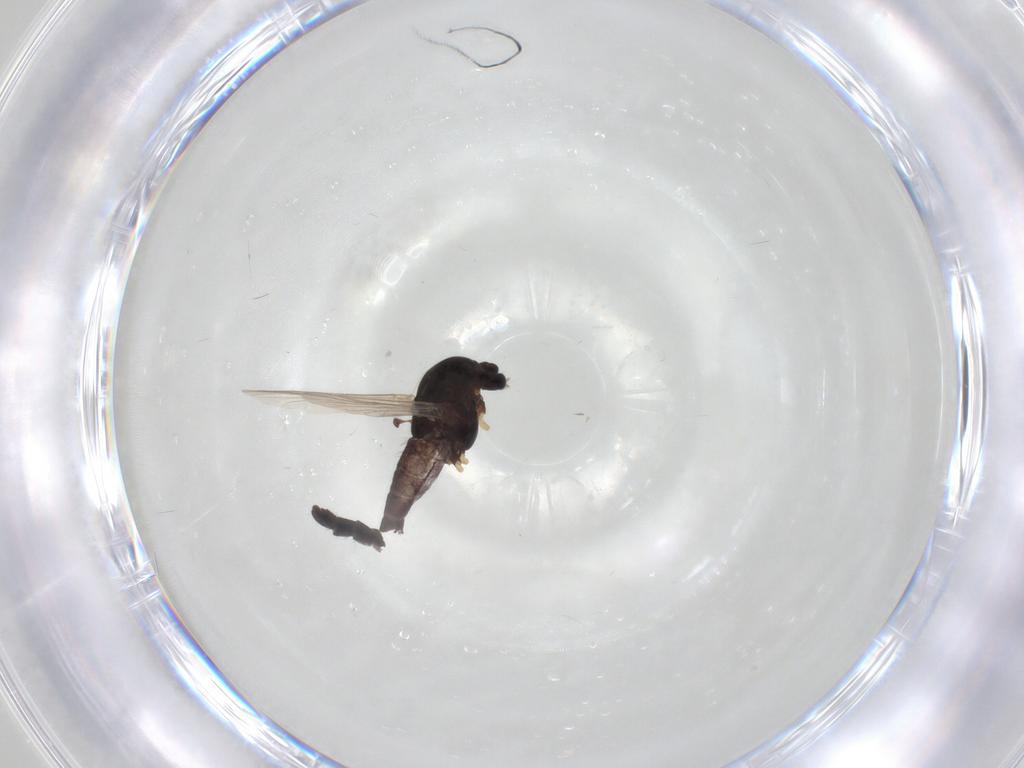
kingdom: Animalia
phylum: Arthropoda
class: Insecta
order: Diptera
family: Chironomidae
